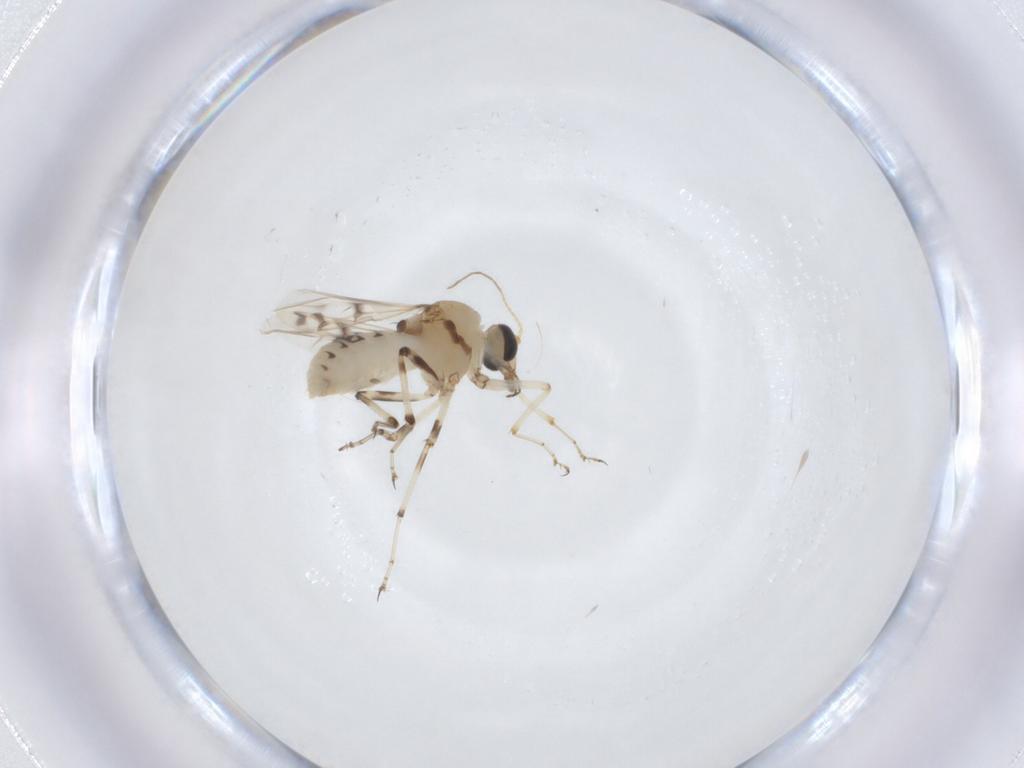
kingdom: Animalia
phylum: Arthropoda
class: Insecta
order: Diptera
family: Ceratopogonidae
